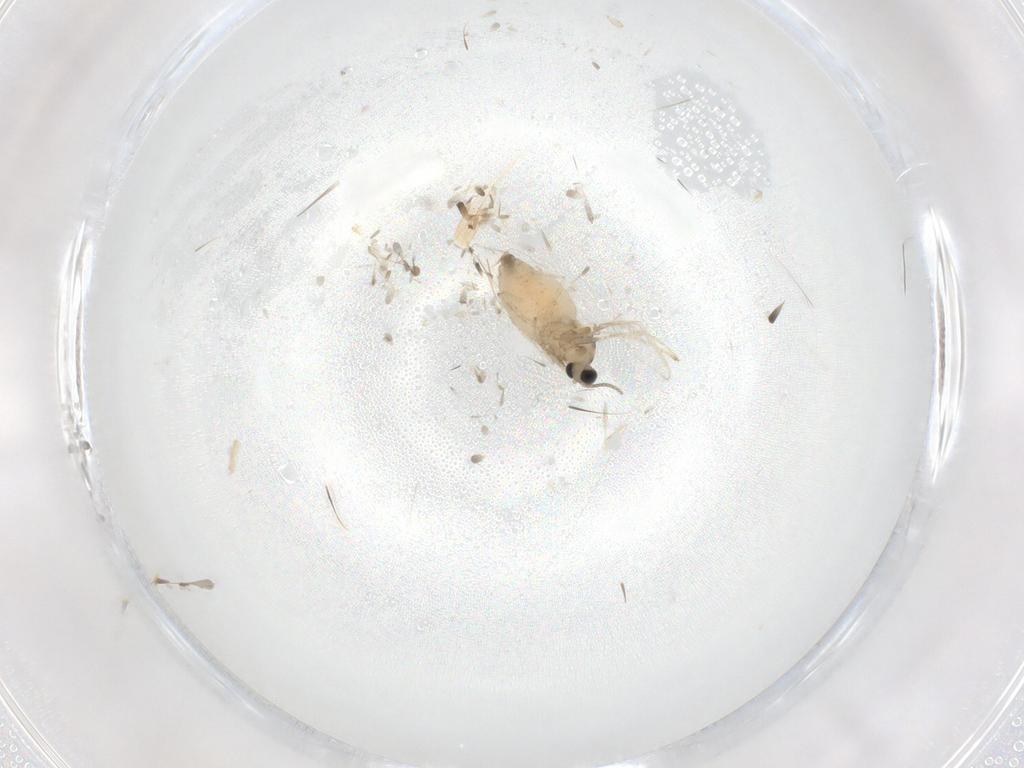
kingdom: Animalia
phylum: Arthropoda
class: Insecta
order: Diptera
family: Cecidomyiidae
